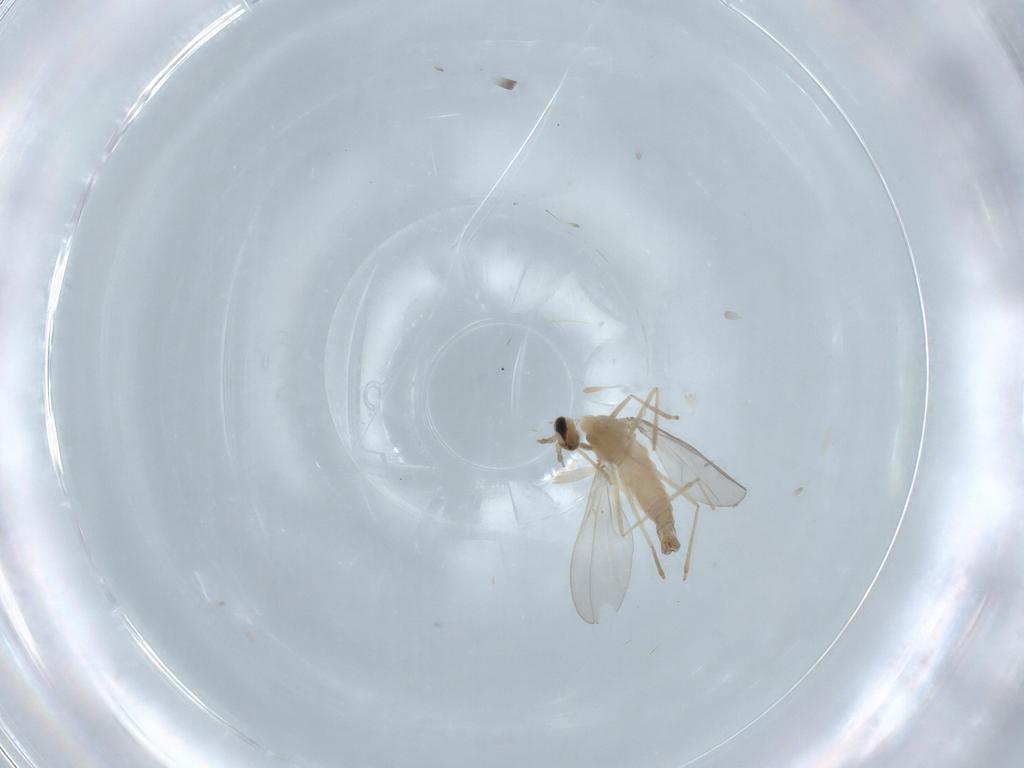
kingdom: Animalia
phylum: Arthropoda
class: Insecta
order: Diptera
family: Cecidomyiidae
